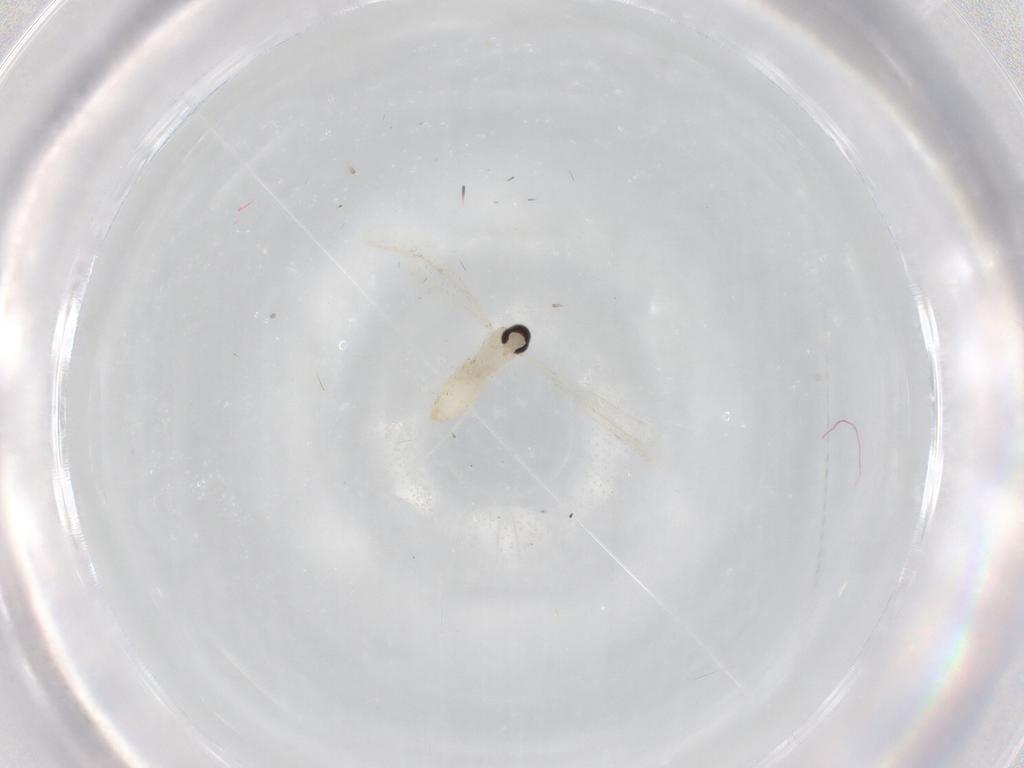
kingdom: Animalia
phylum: Arthropoda
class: Insecta
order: Diptera
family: Cecidomyiidae
